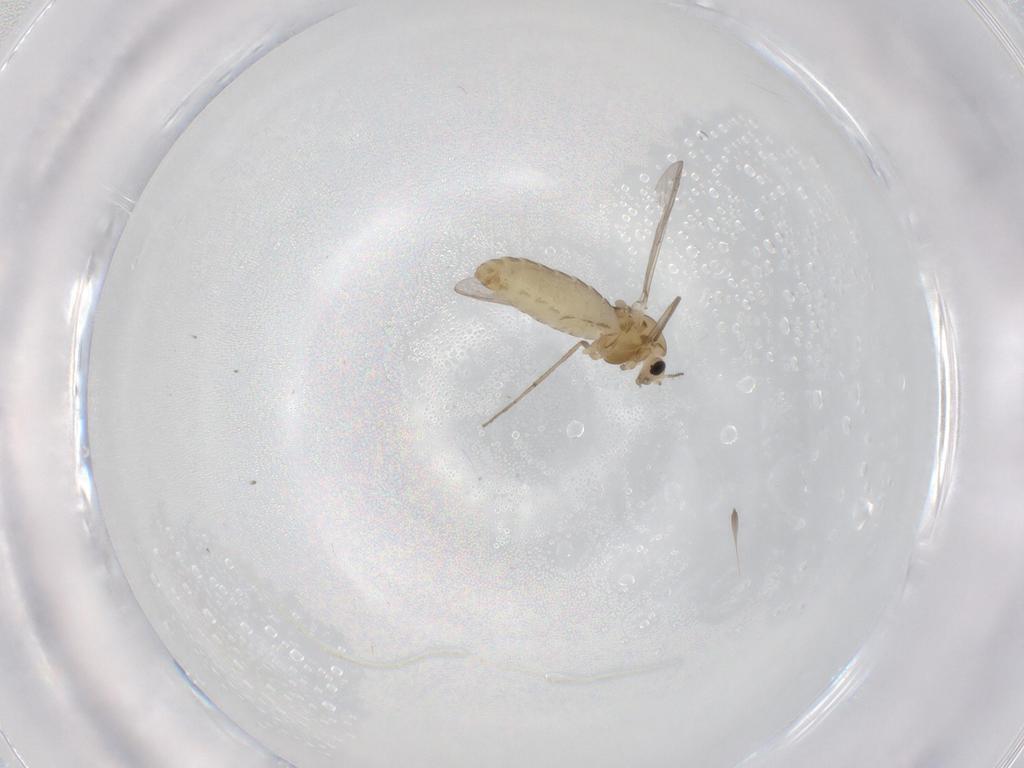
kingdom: Animalia
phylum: Arthropoda
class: Insecta
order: Diptera
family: Chironomidae
